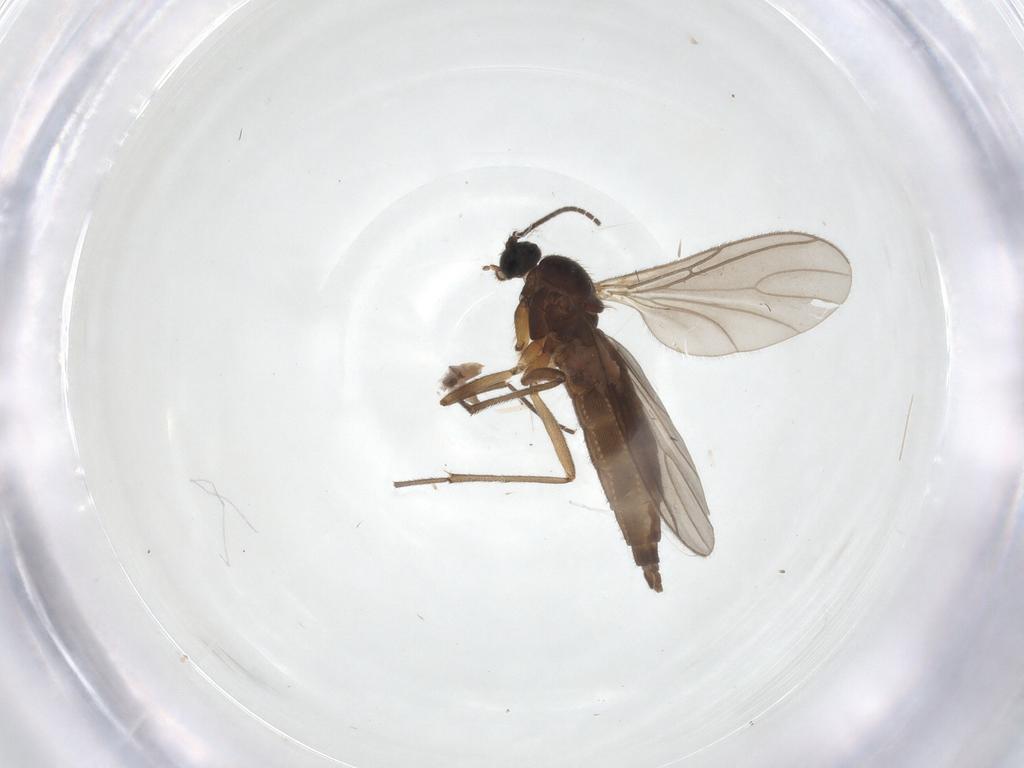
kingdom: Animalia
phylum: Arthropoda
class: Insecta
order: Diptera
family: Sciaridae
